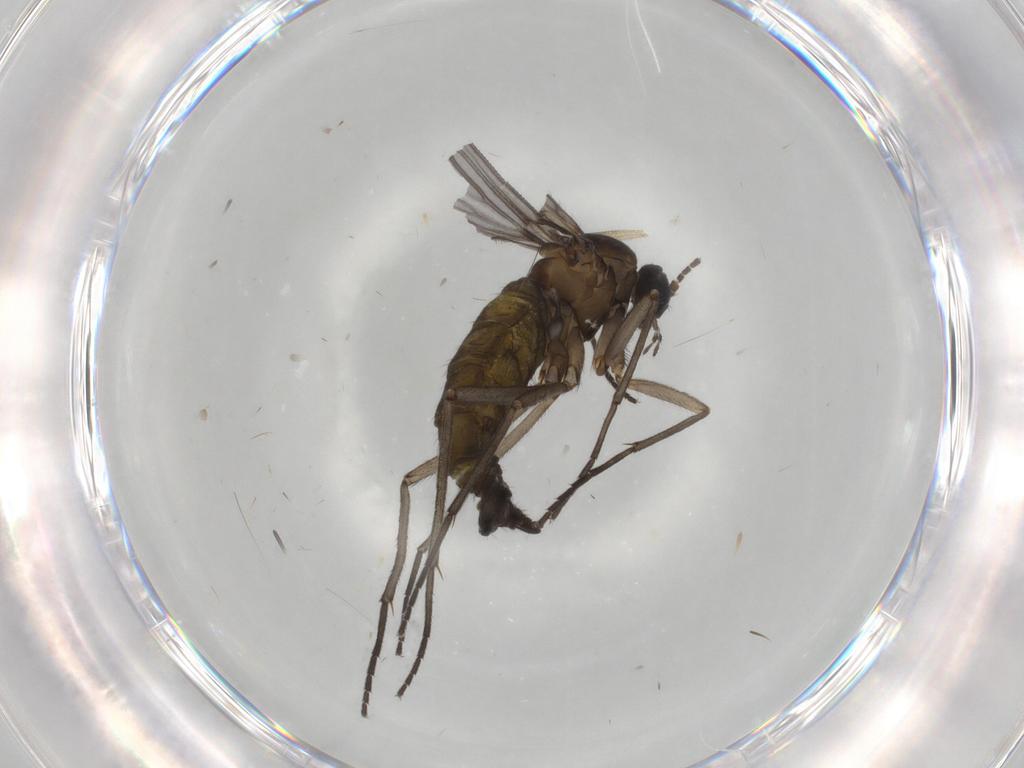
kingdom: Animalia
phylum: Arthropoda
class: Insecta
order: Diptera
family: Sciaridae
